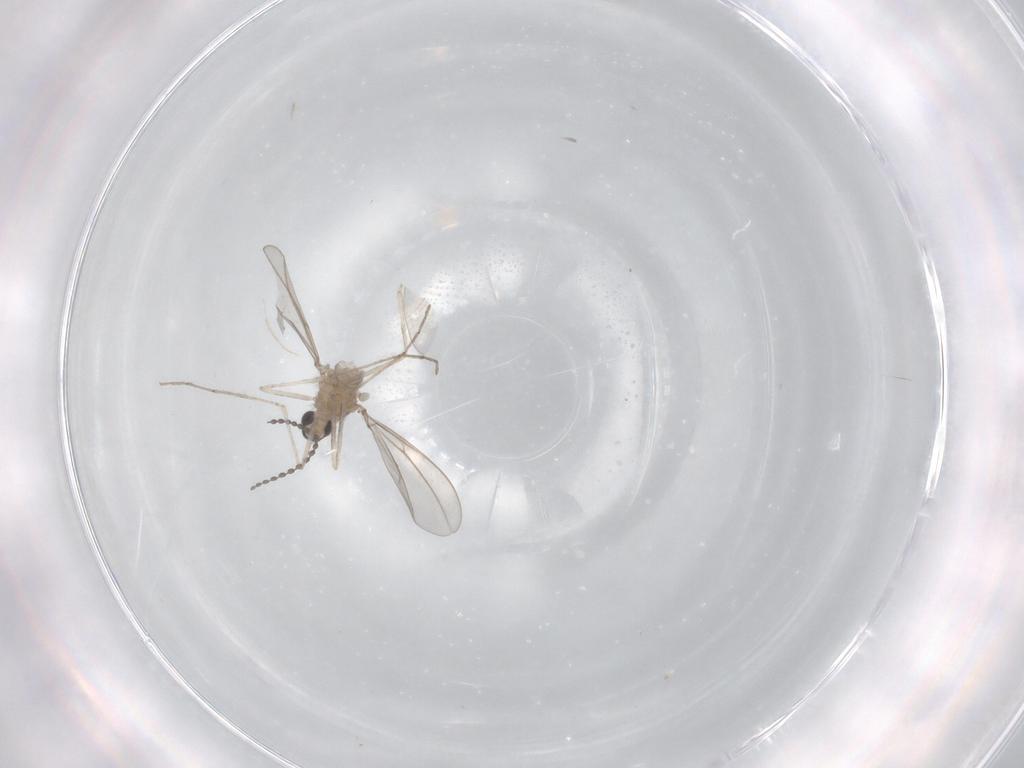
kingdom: Animalia
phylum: Arthropoda
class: Insecta
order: Diptera
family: Cecidomyiidae
